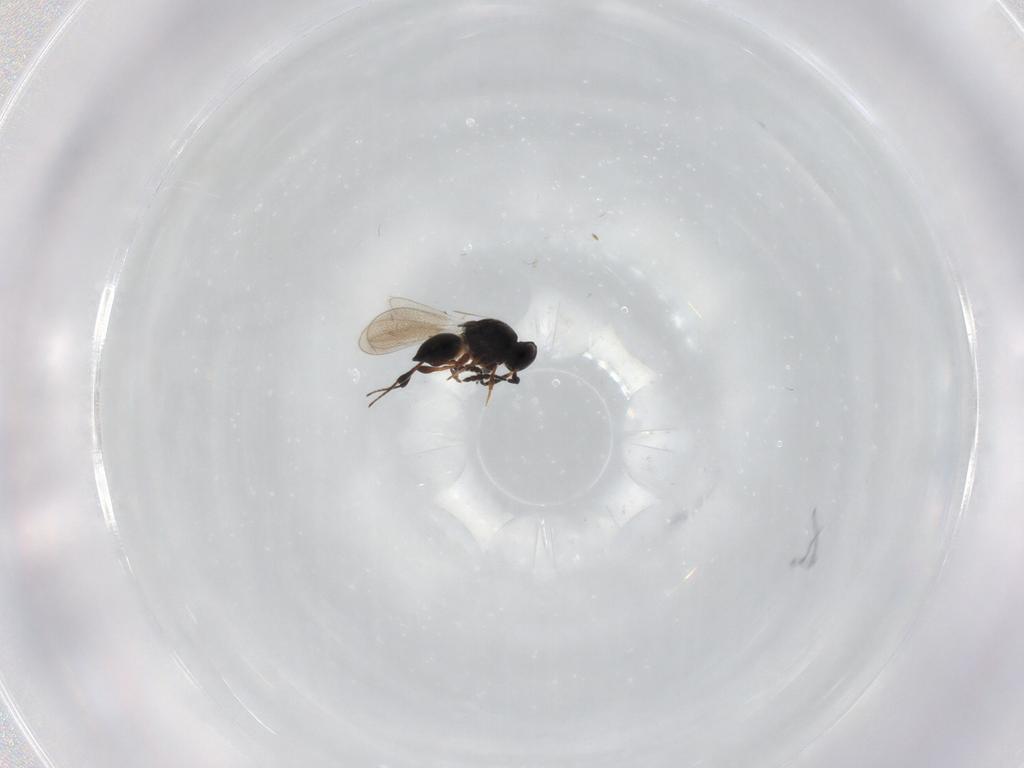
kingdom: Animalia
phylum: Arthropoda
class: Insecta
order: Hymenoptera
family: Platygastridae
